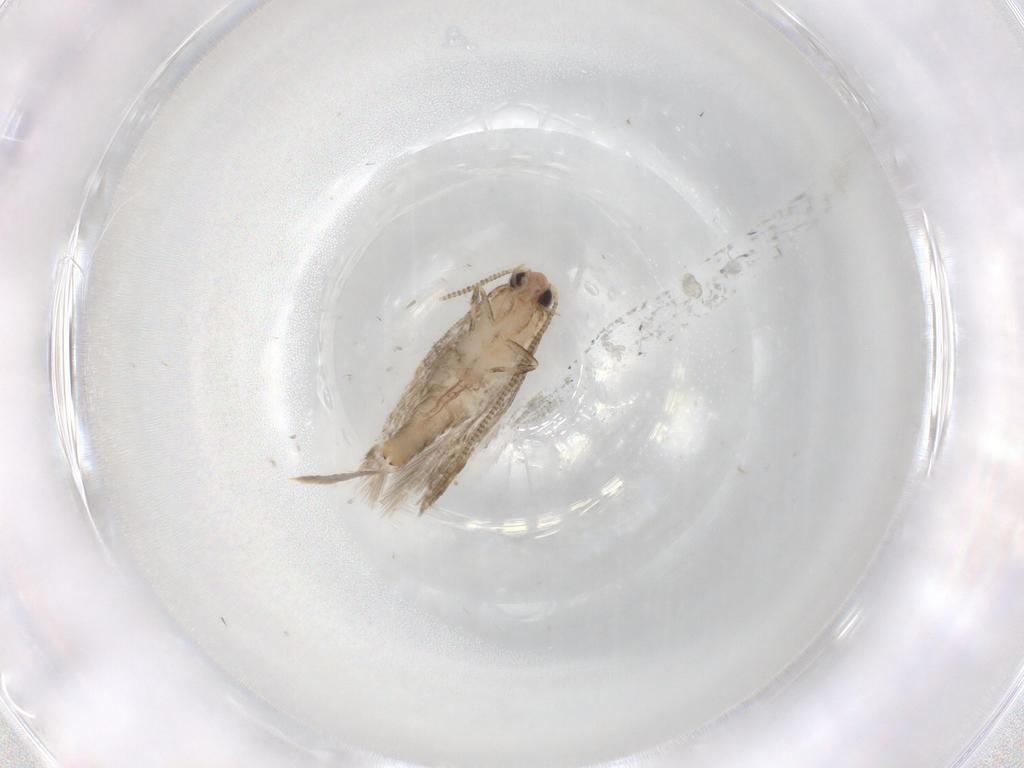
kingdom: Animalia
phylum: Arthropoda
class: Insecta
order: Lepidoptera
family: Tineidae
